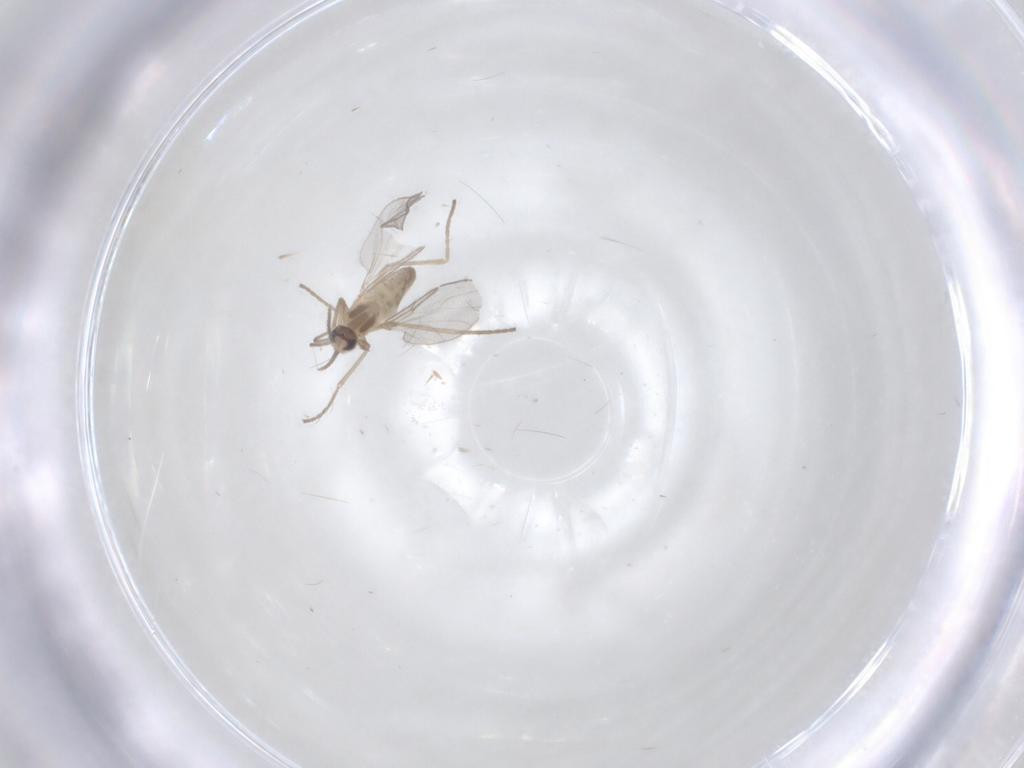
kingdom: Animalia
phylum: Arthropoda
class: Insecta
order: Diptera
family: Cecidomyiidae
